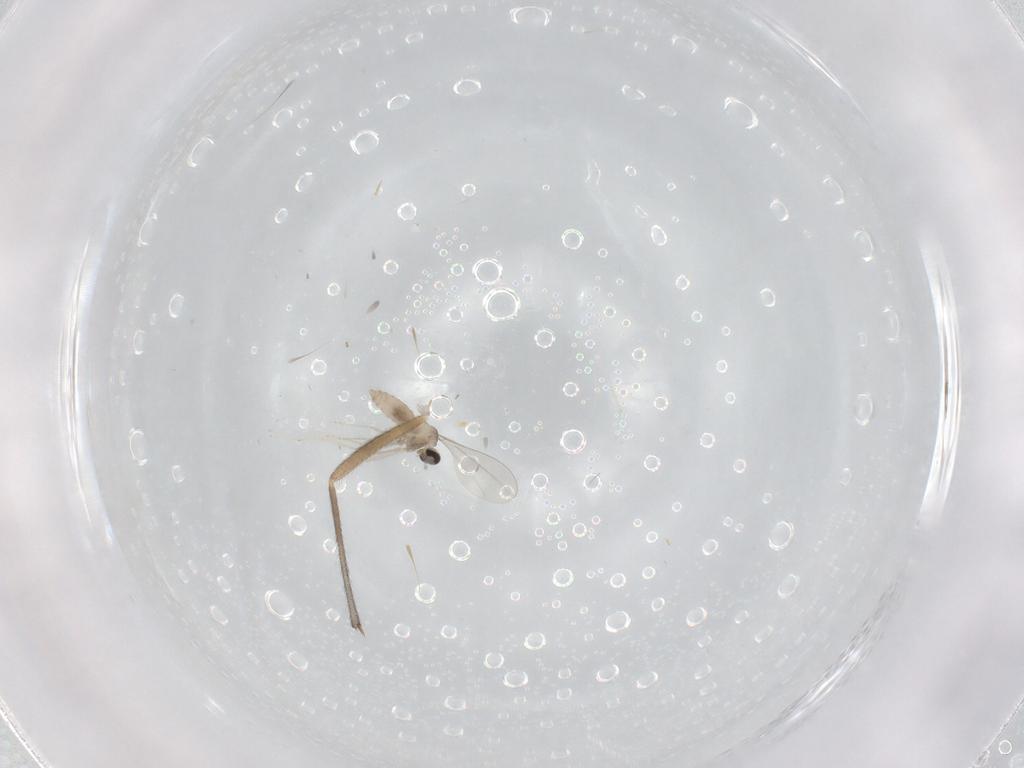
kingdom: Animalia
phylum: Arthropoda
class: Insecta
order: Diptera
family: Sciaridae
